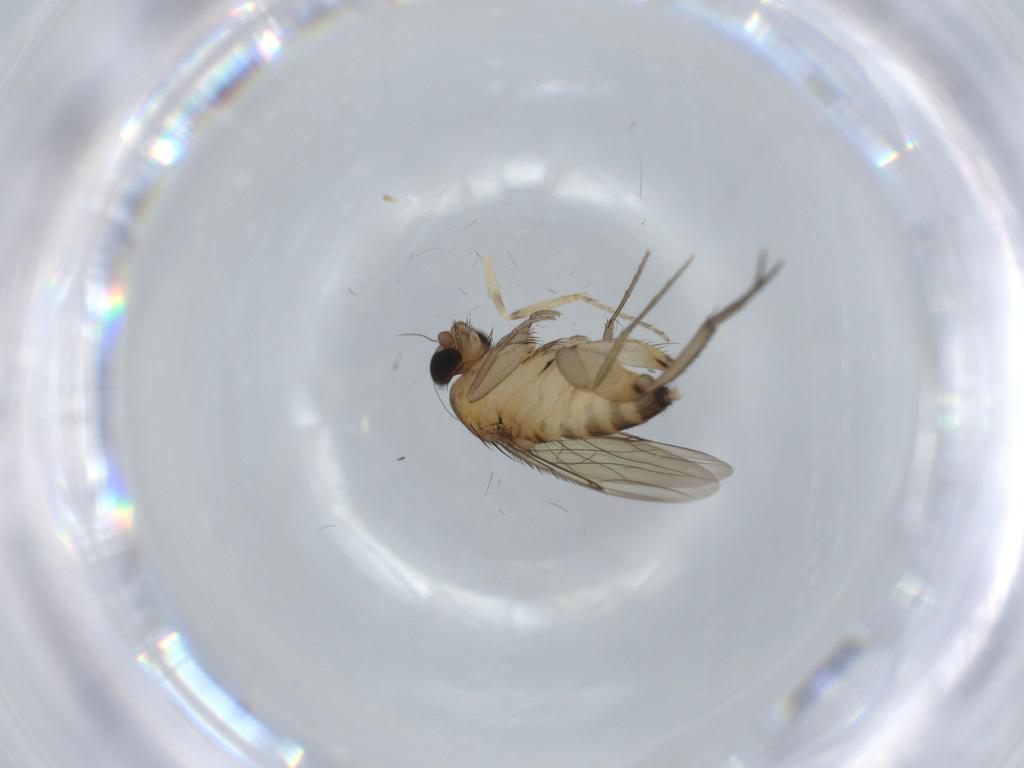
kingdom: Animalia
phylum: Arthropoda
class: Insecta
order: Diptera
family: Phoridae
